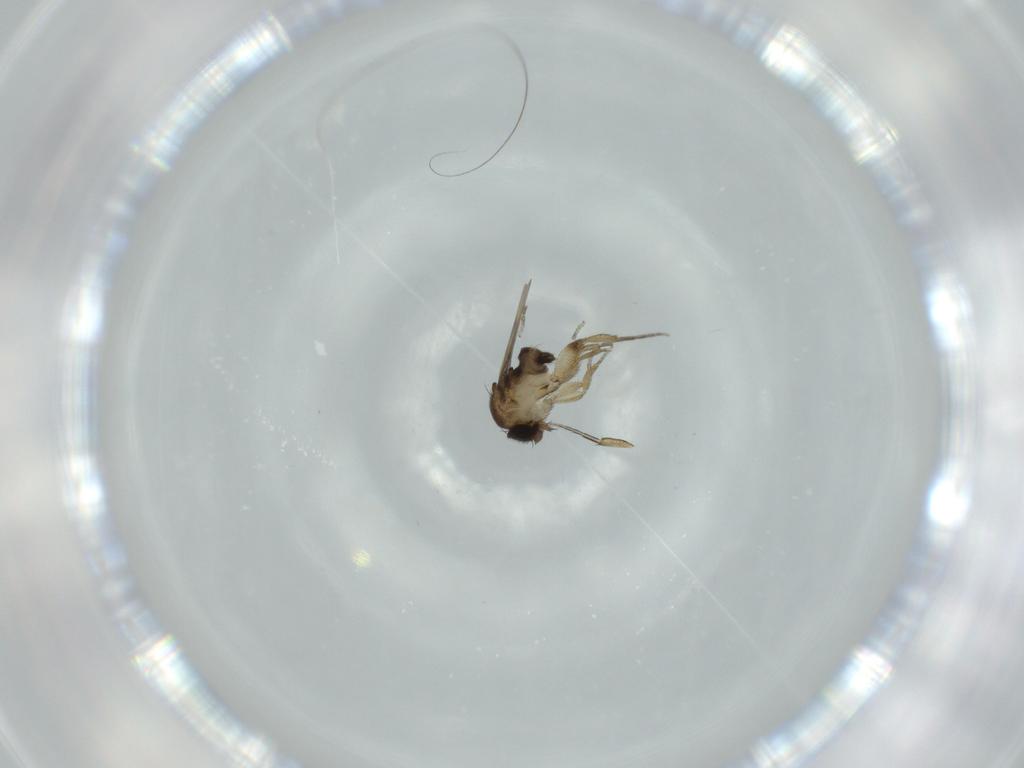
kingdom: Animalia
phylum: Arthropoda
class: Insecta
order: Diptera
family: Phoridae
